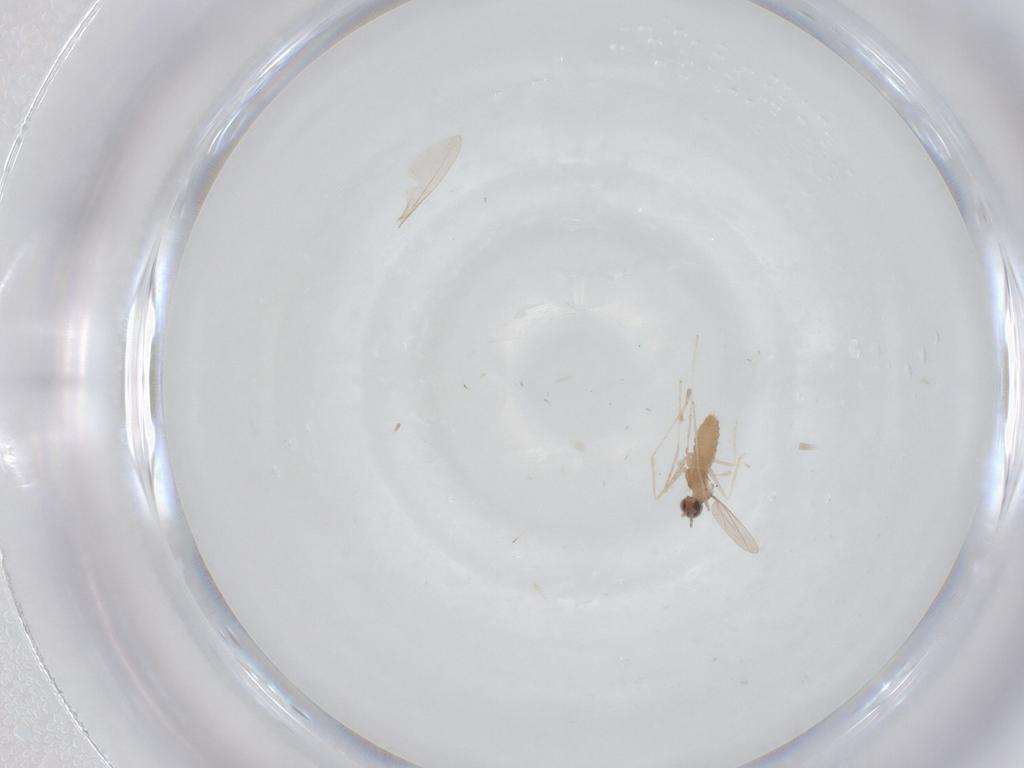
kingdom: Animalia
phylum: Arthropoda
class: Insecta
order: Diptera
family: Cecidomyiidae
